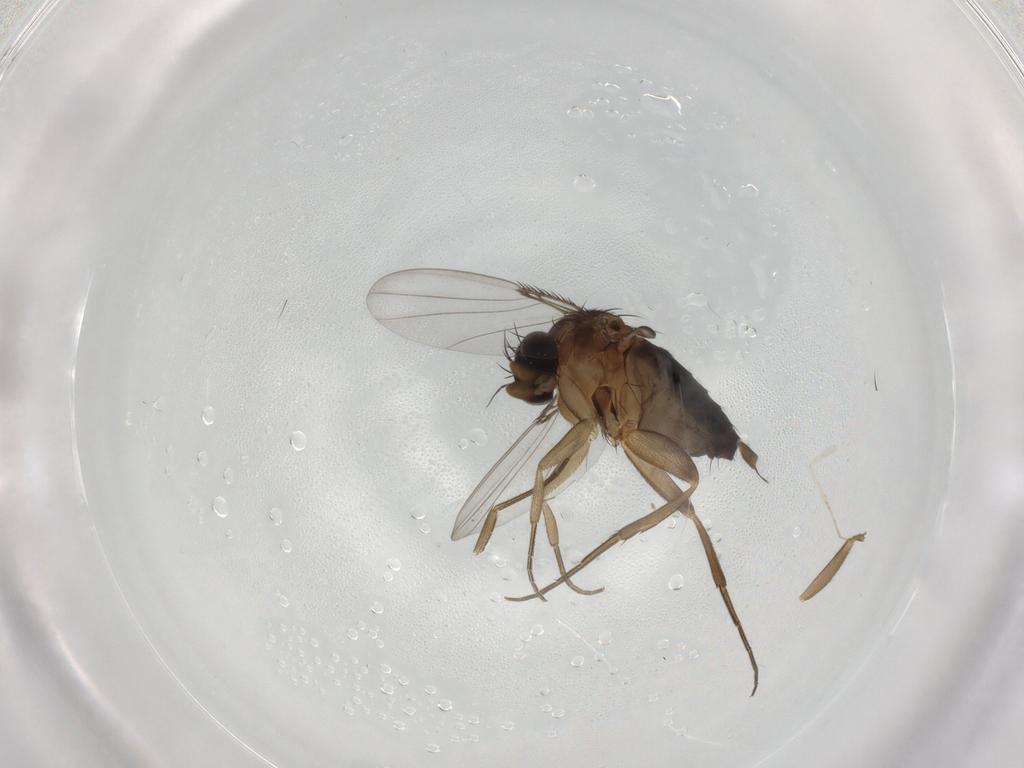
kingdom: Animalia
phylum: Arthropoda
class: Insecta
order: Diptera
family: Phoridae
